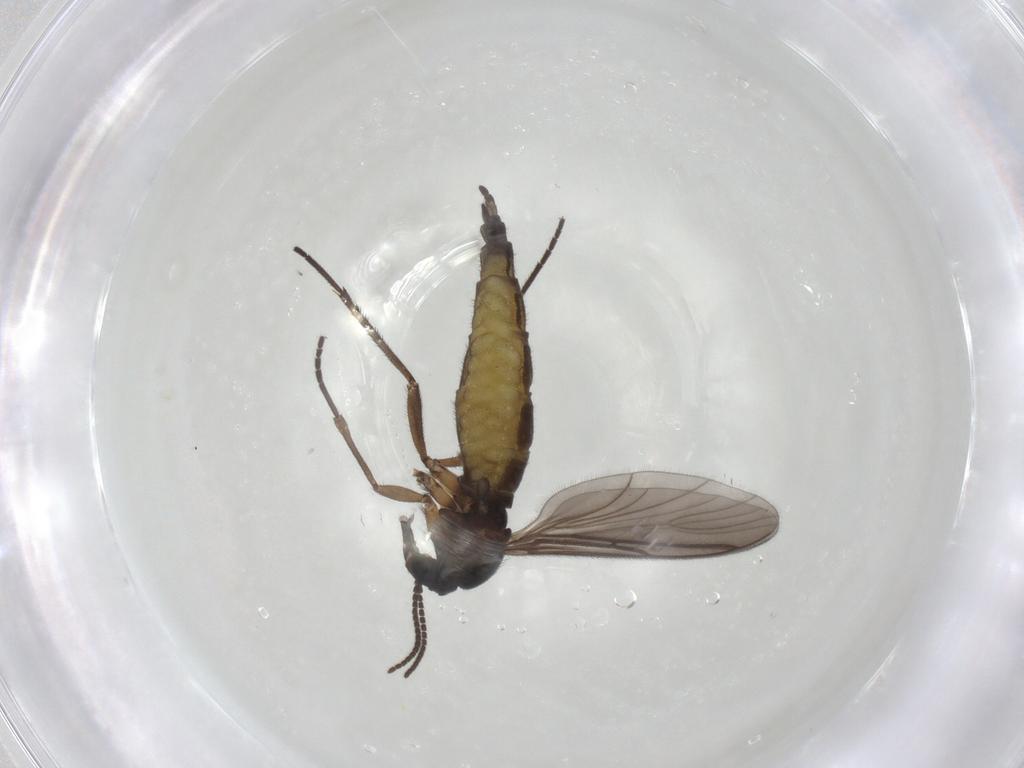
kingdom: Animalia
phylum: Arthropoda
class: Insecta
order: Diptera
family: Sciaridae
